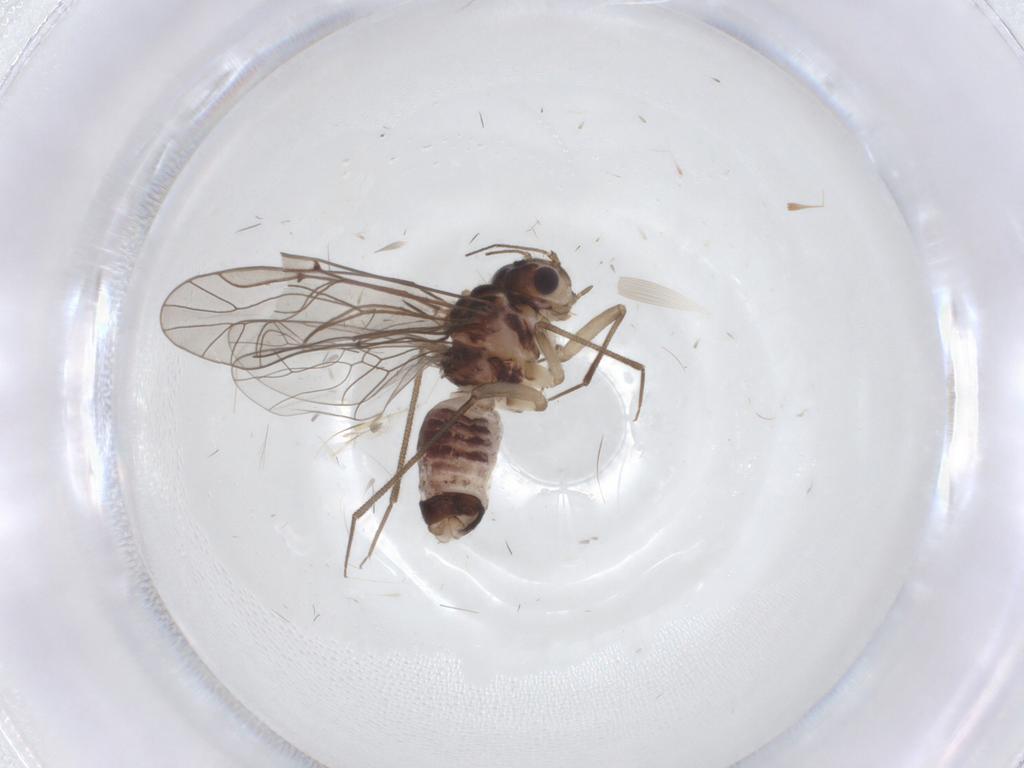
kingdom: Animalia
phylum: Arthropoda
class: Insecta
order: Psocodea
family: Lachesillidae
